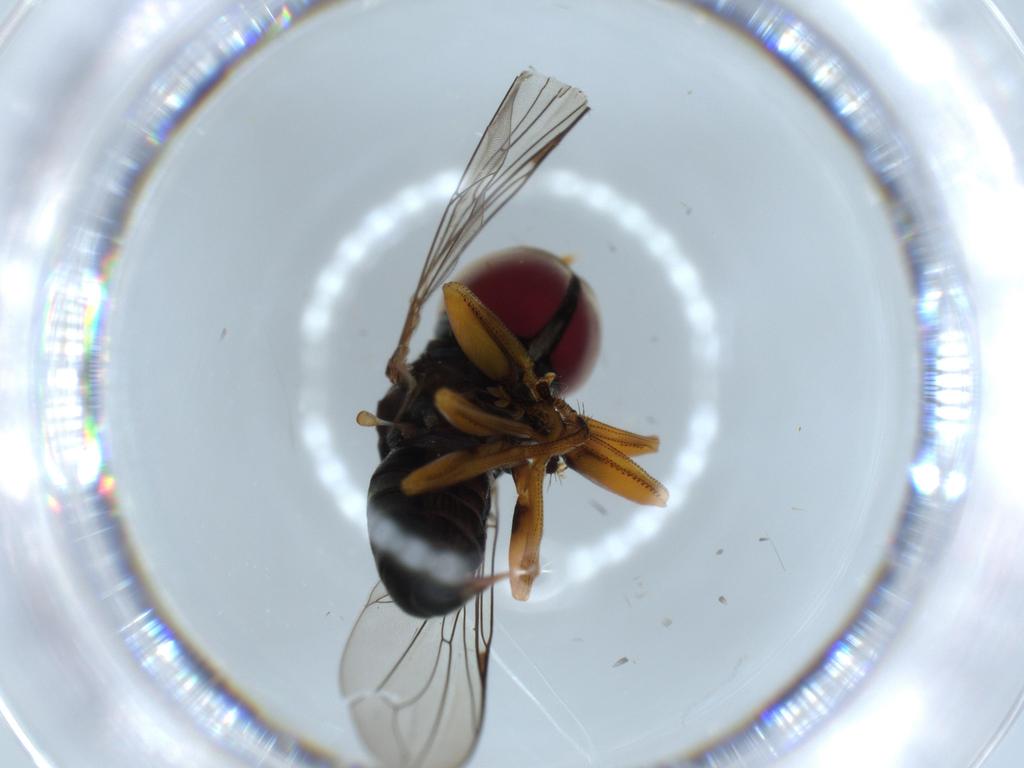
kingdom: Animalia
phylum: Arthropoda
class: Insecta
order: Diptera
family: Pipunculidae
